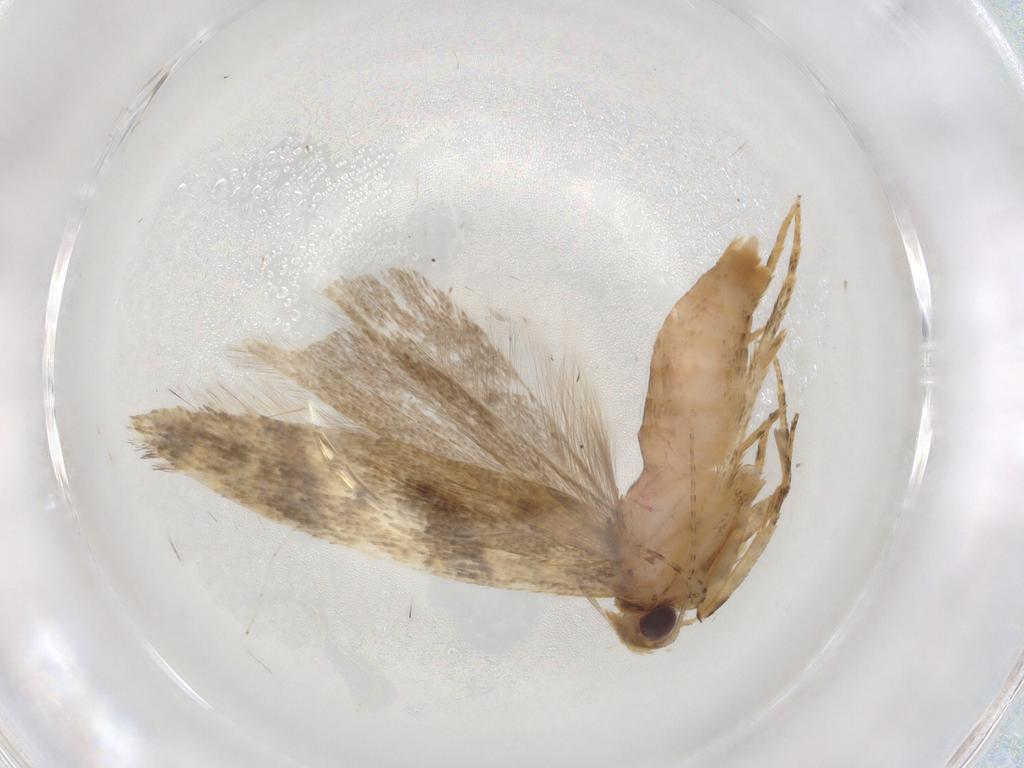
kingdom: Animalia
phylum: Arthropoda
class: Insecta
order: Lepidoptera
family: Gelechiidae
